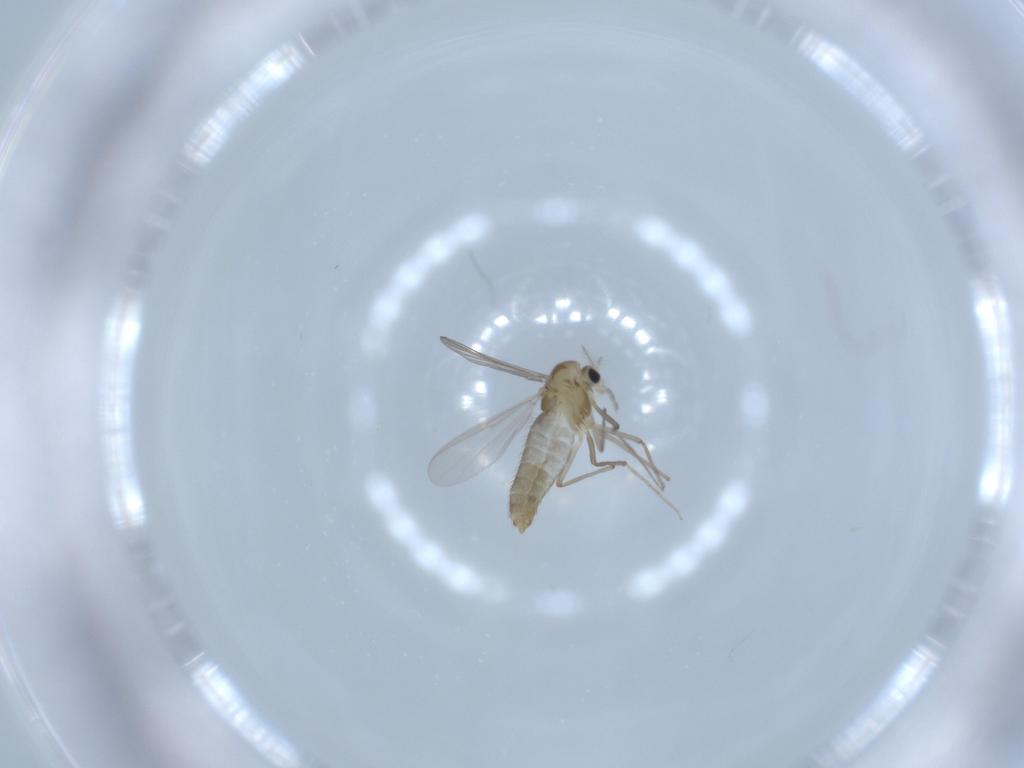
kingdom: Animalia
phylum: Arthropoda
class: Insecta
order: Diptera
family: Chironomidae
